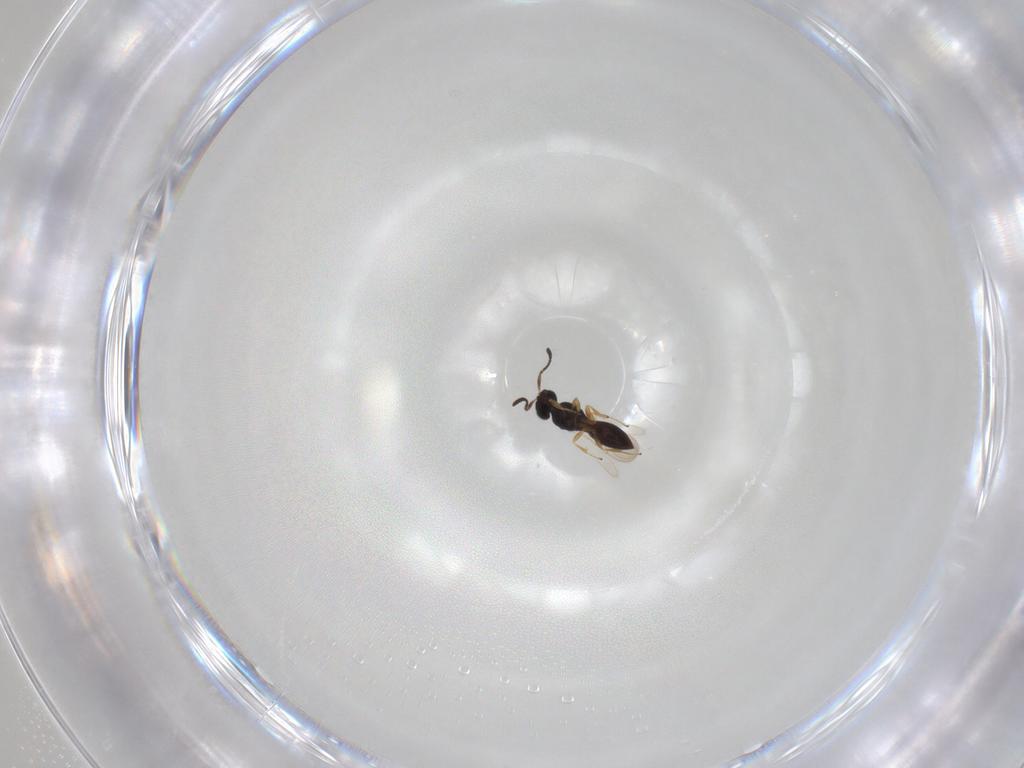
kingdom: Animalia
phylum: Arthropoda
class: Insecta
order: Hymenoptera
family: Scelionidae
